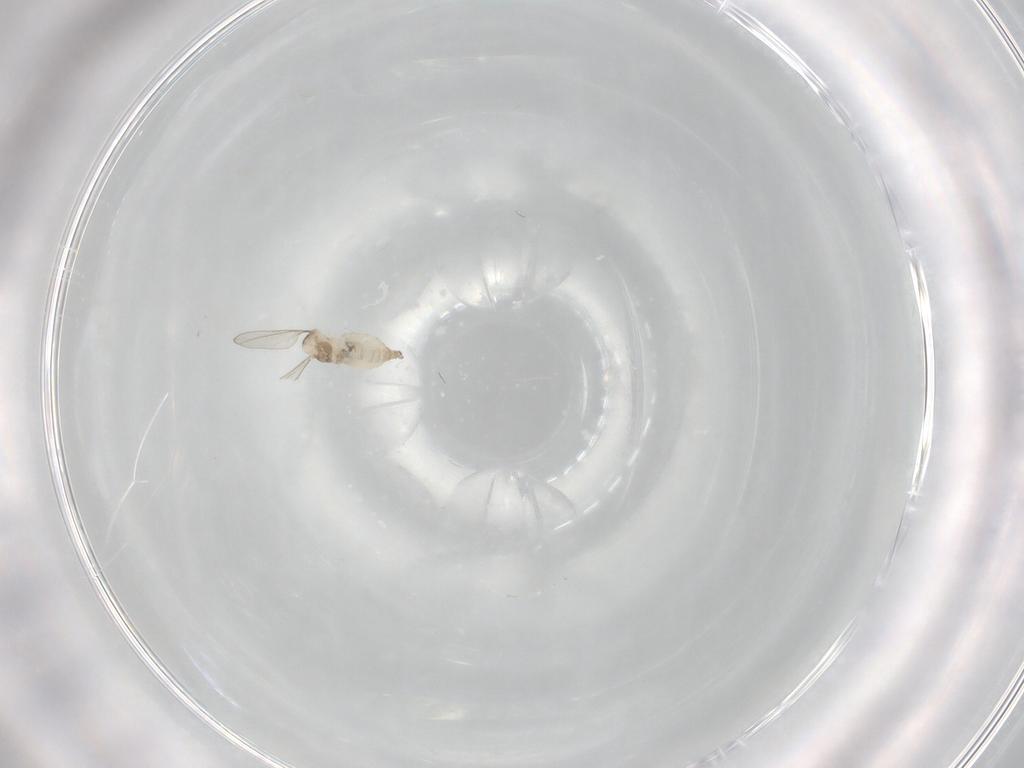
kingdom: Animalia
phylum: Arthropoda
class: Insecta
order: Diptera
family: Cecidomyiidae
